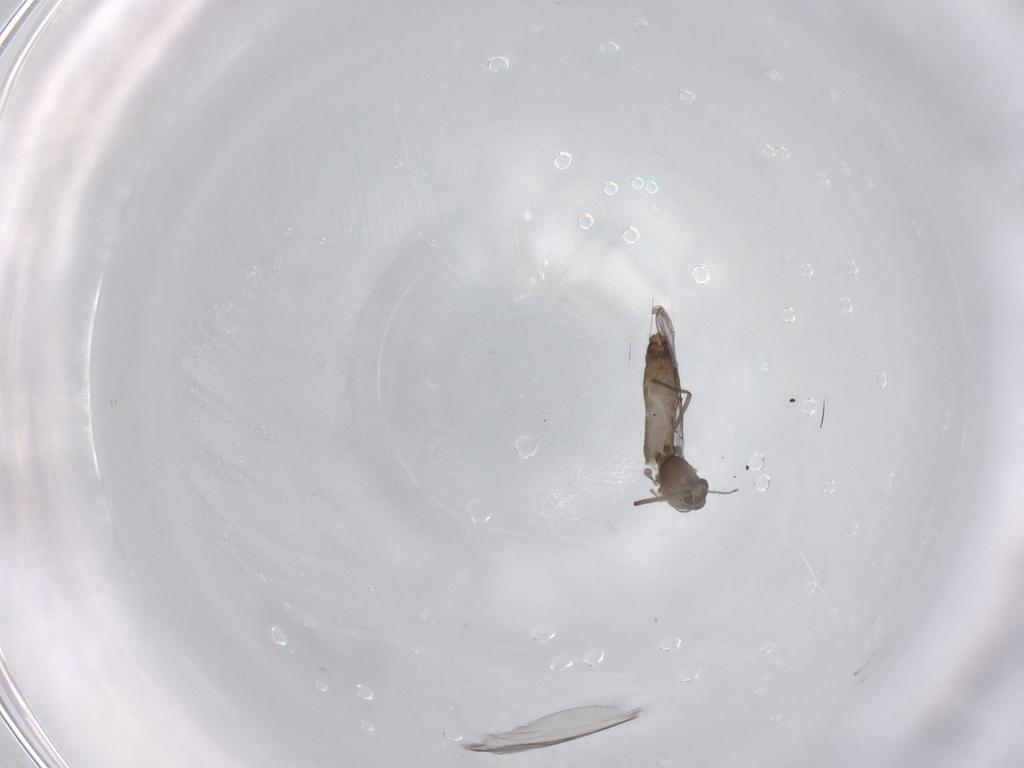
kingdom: Animalia
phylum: Arthropoda
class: Insecta
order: Diptera
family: Chironomidae
